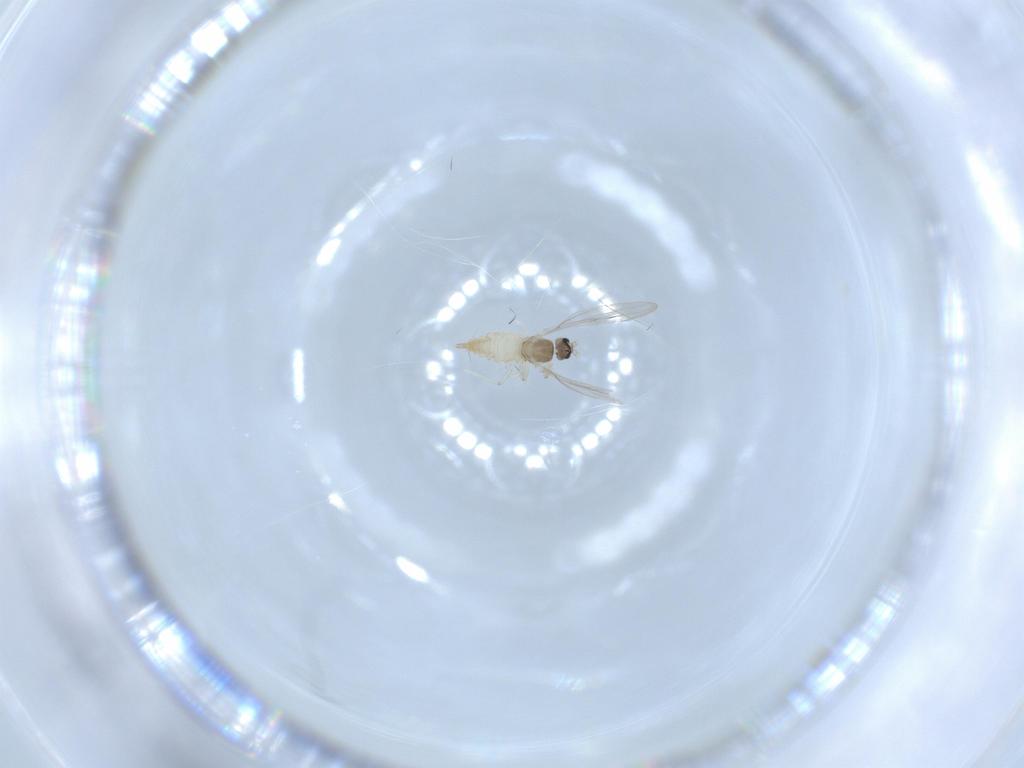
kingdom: Animalia
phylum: Arthropoda
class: Insecta
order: Diptera
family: Cecidomyiidae
